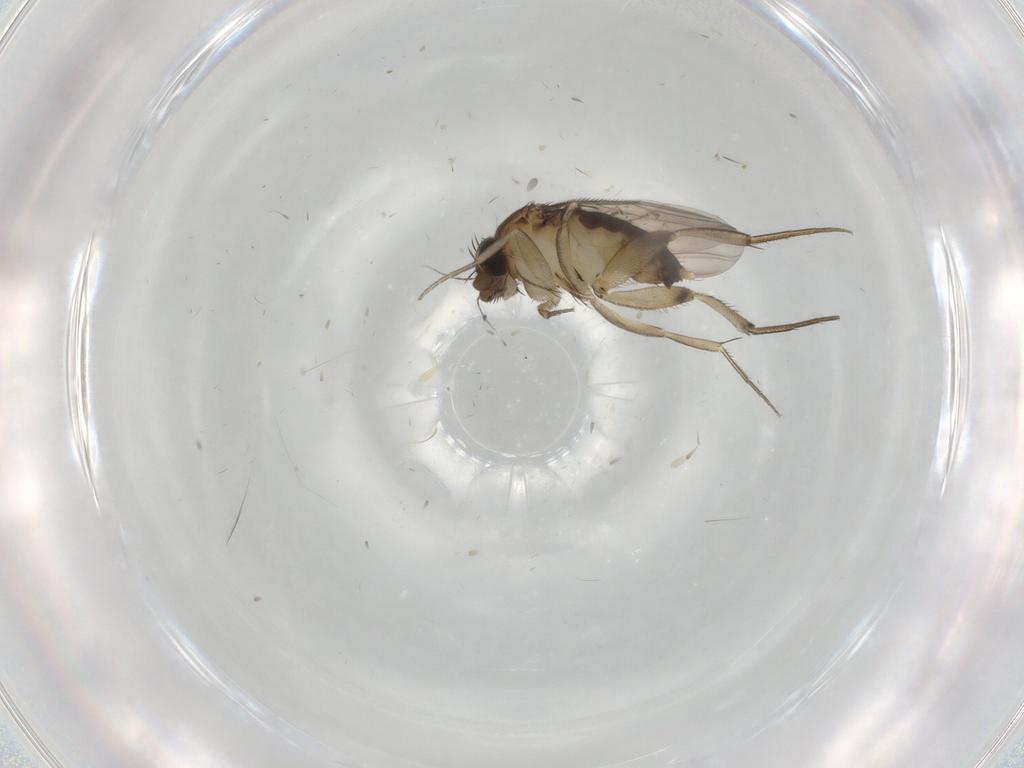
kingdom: Animalia
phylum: Arthropoda
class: Insecta
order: Diptera
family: Phoridae
